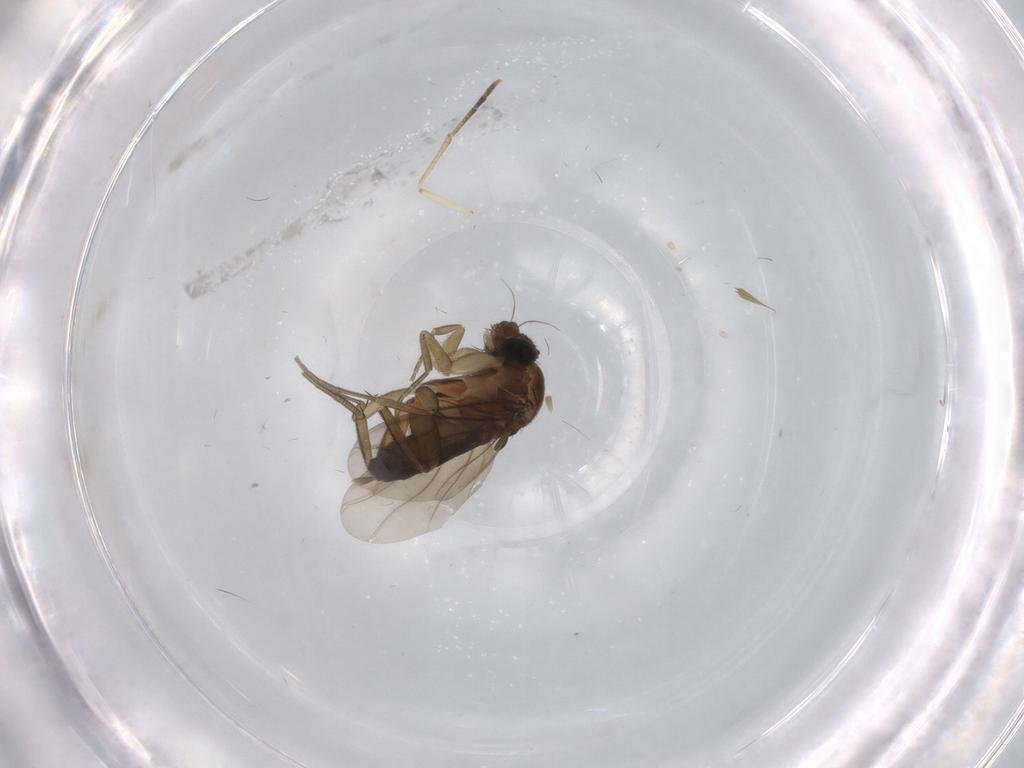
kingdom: Animalia
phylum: Arthropoda
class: Insecta
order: Diptera
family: Phoridae
